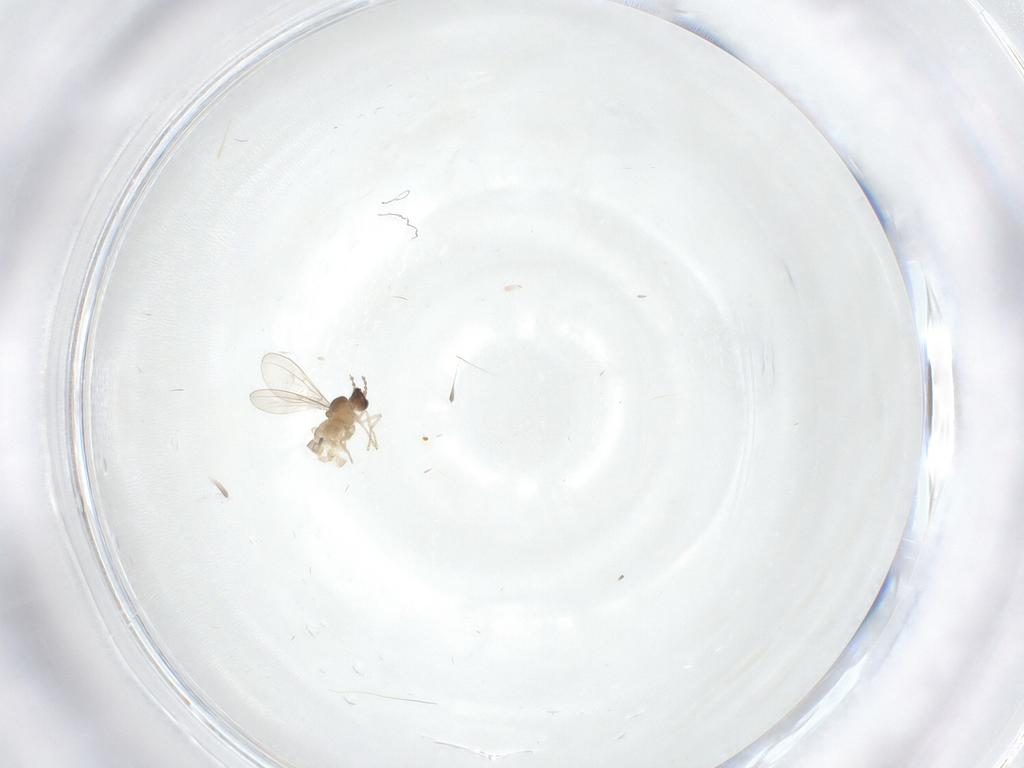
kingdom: Animalia
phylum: Arthropoda
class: Insecta
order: Diptera
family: Cecidomyiidae
